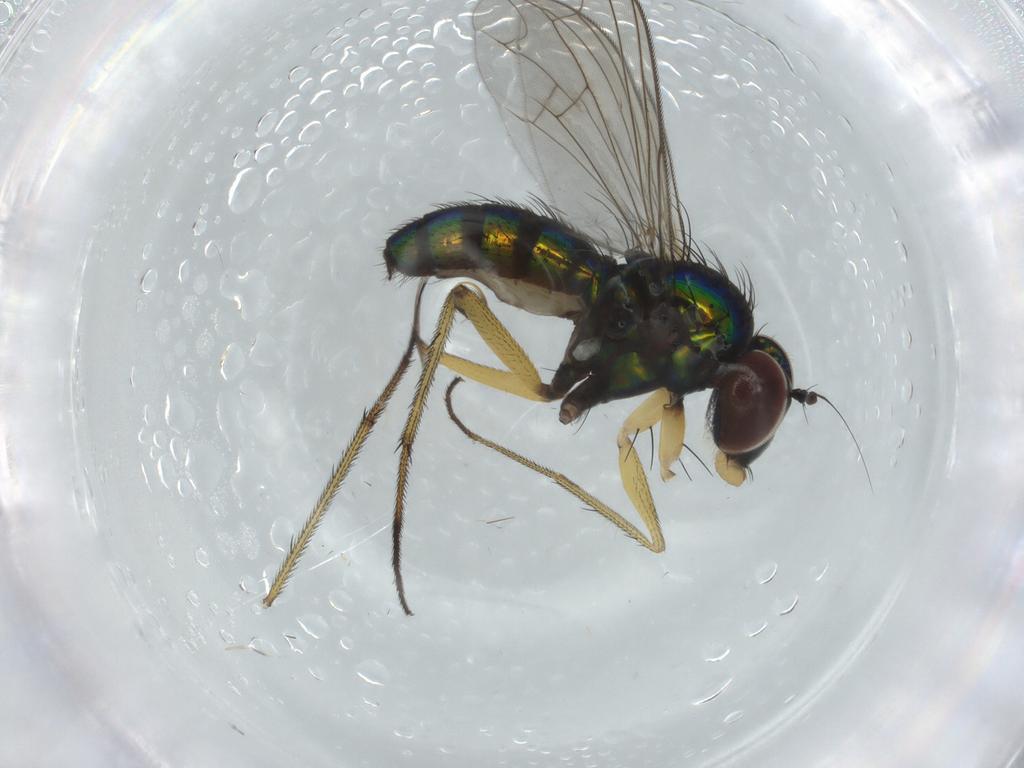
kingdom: Animalia
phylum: Arthropoda
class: Insecta
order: Diptera
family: Dolichopodidae
